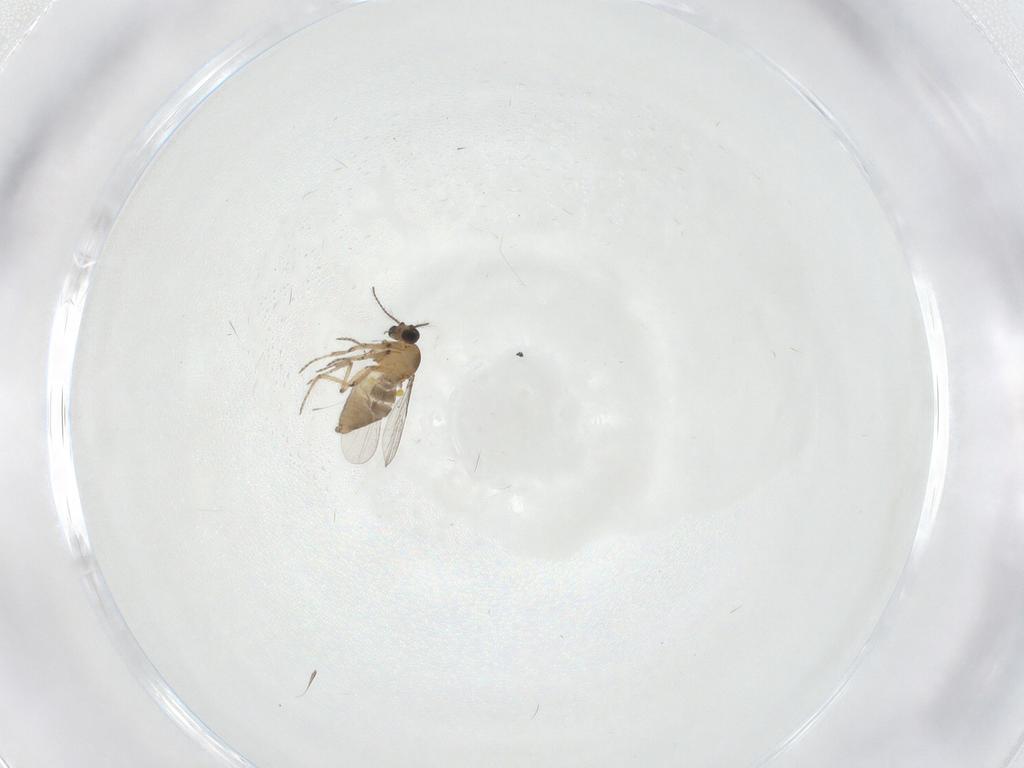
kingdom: Animalia
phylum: Arthropoda
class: Insecta
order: Diptera
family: Ceratopogonidae
